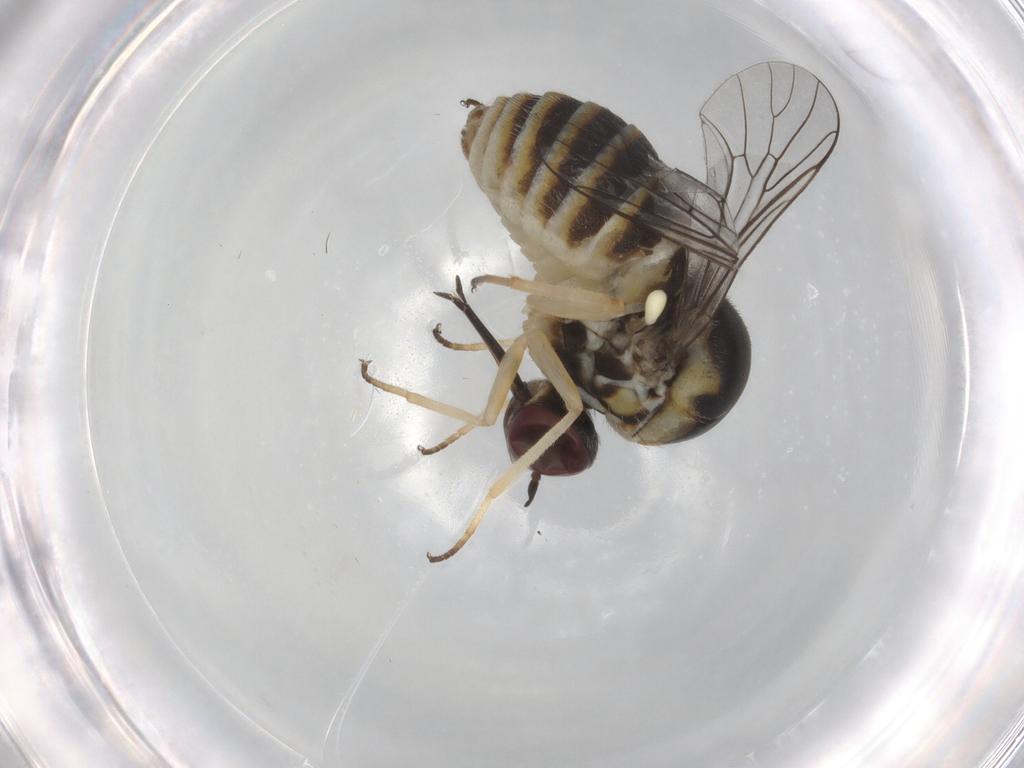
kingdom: Animalia
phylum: Arthropoda
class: Insecta
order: Diptera
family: Bombyliidae
